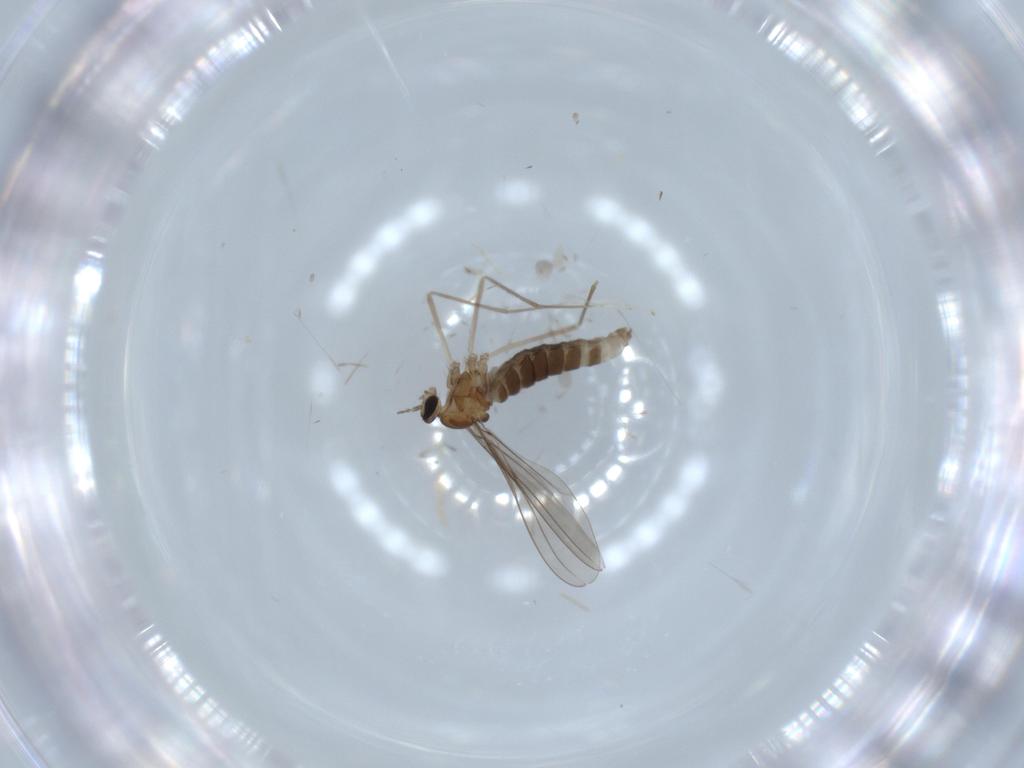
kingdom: Animalia
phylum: Arthropoda
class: Insecta
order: Diptera
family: Cecidomyiidae
